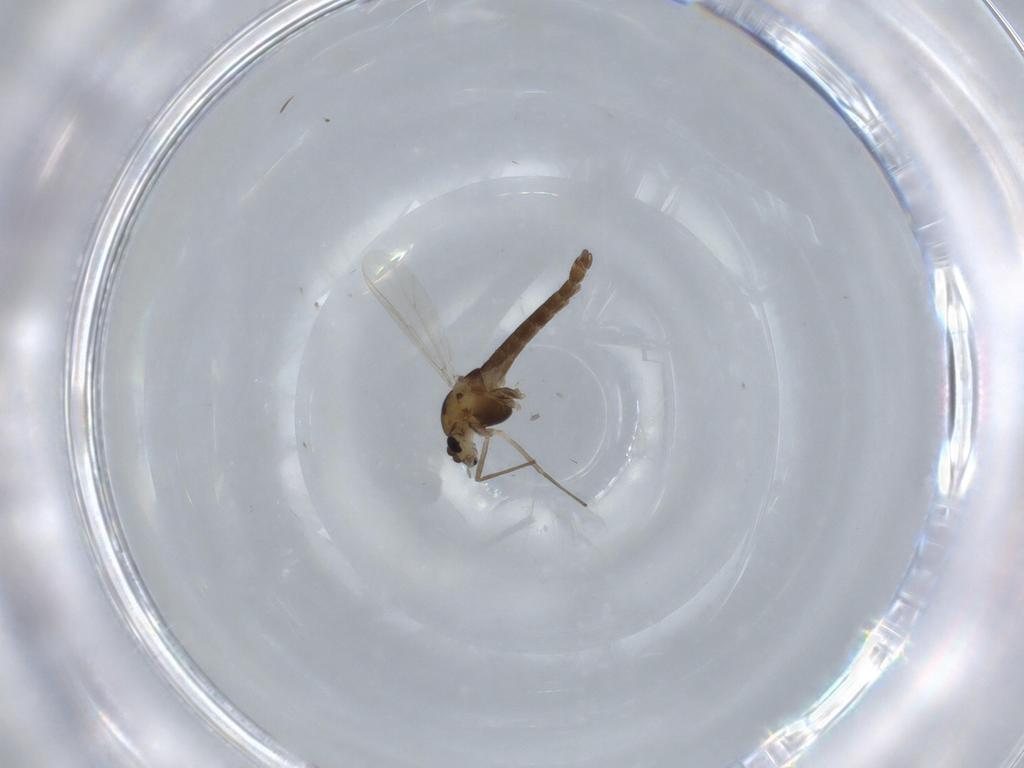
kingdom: Animalia
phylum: Arthropoda
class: Insecta
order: Diptera
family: Chironomidae
